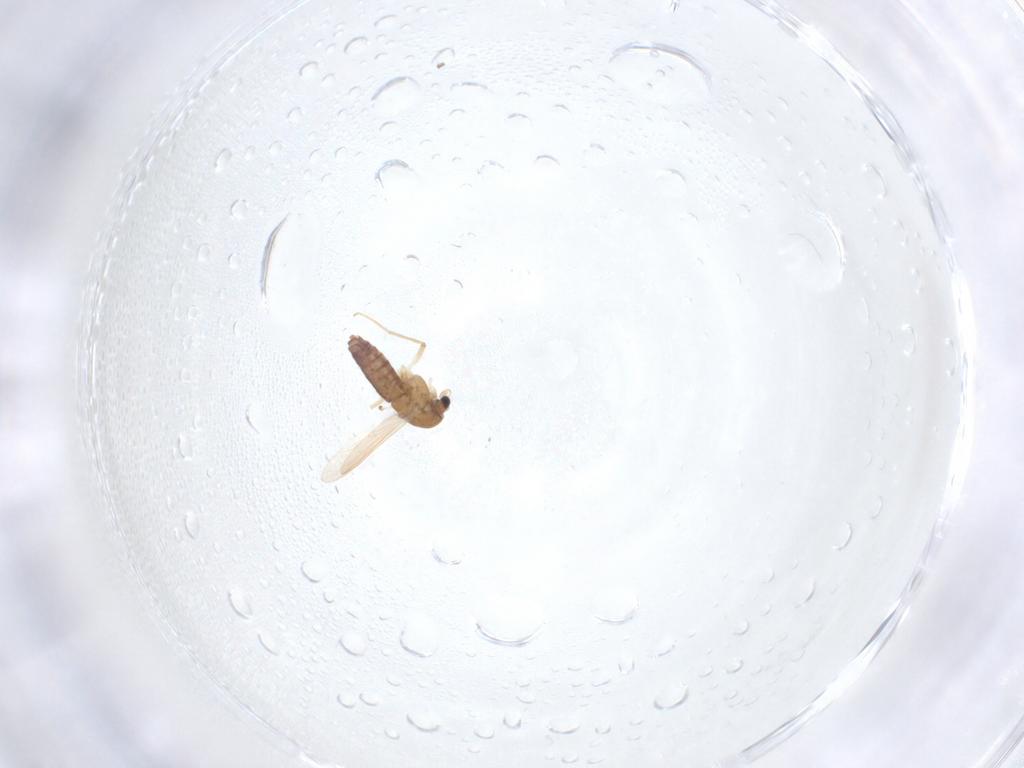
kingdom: Animalia
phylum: Arthropoda
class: Insecta
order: Diptera
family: Chironomidae
